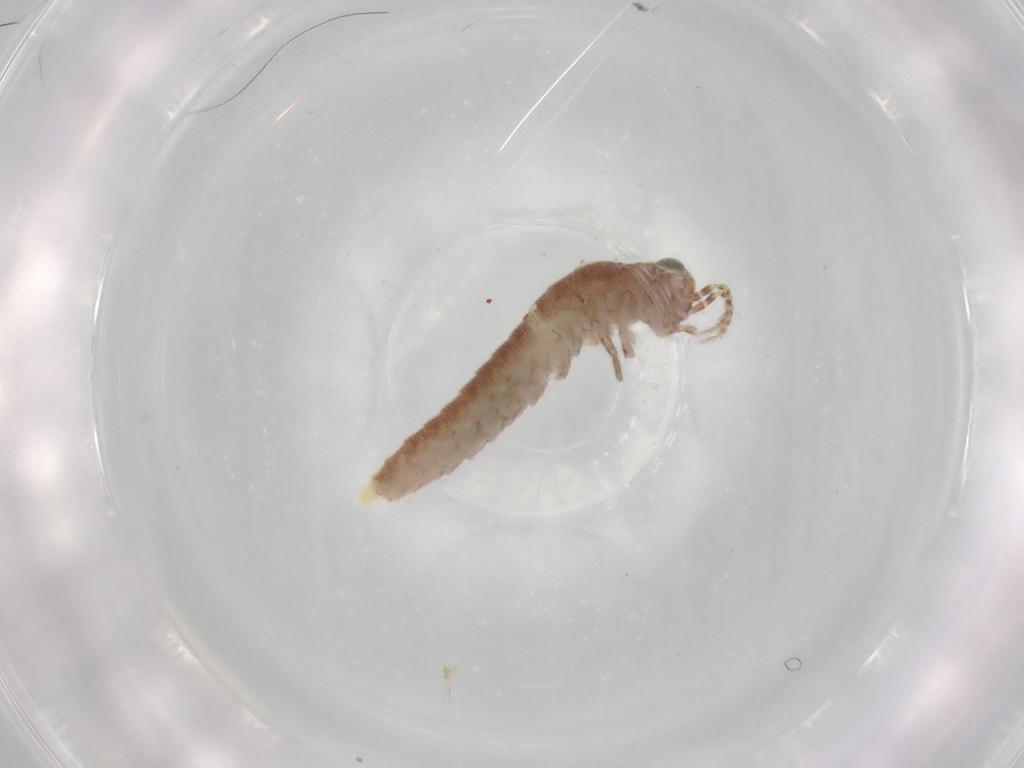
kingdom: Animalia
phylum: Arthropoda
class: Insecta
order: Archaeognatha
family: Machilidae
